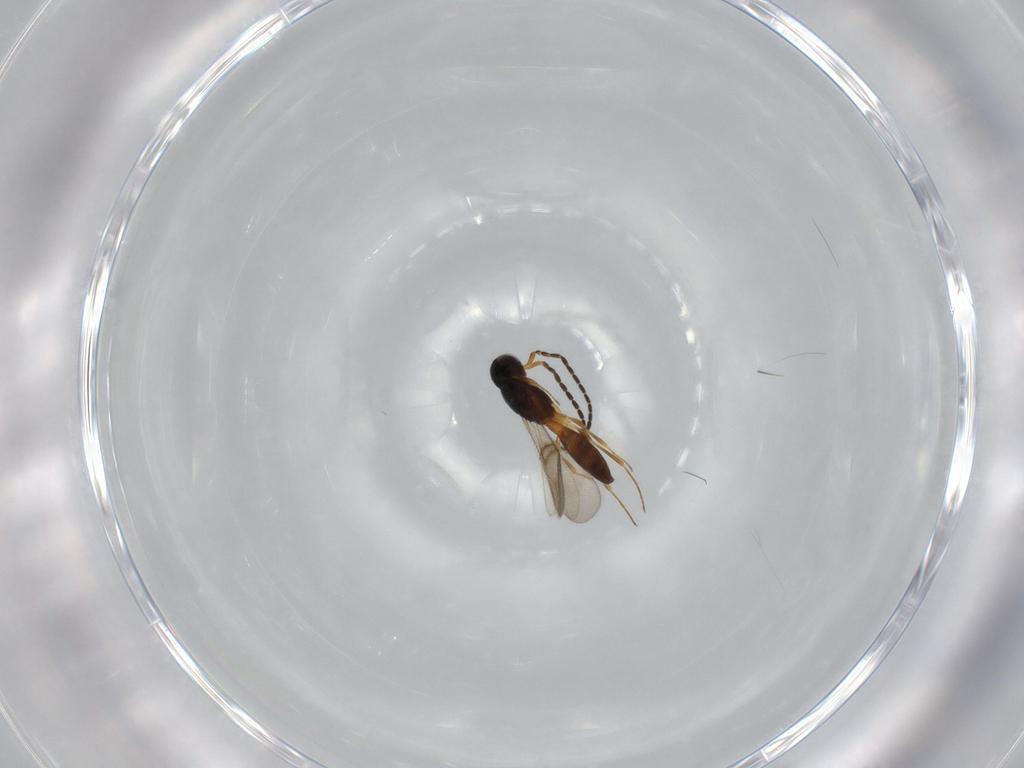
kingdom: Animalia
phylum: Arthropoda
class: Insecta
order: Hymenoptera
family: Scelionidae
